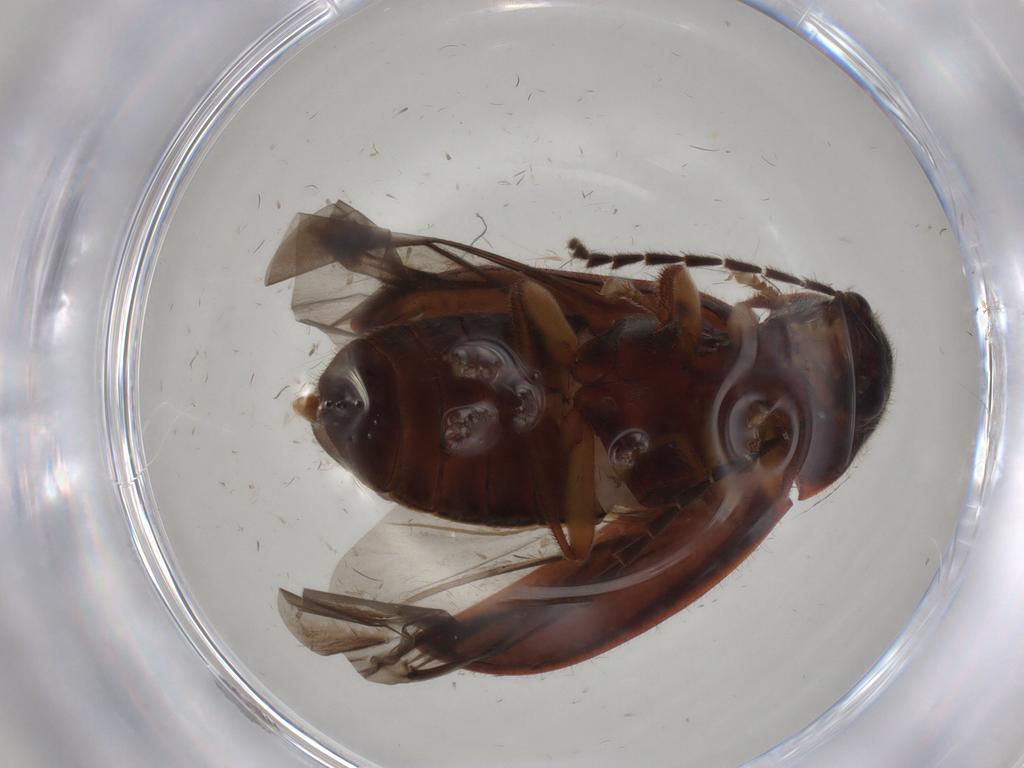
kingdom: Animalia
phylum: Arthropoda
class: Insecta
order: Coleoptera
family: Ptilodactylidae
